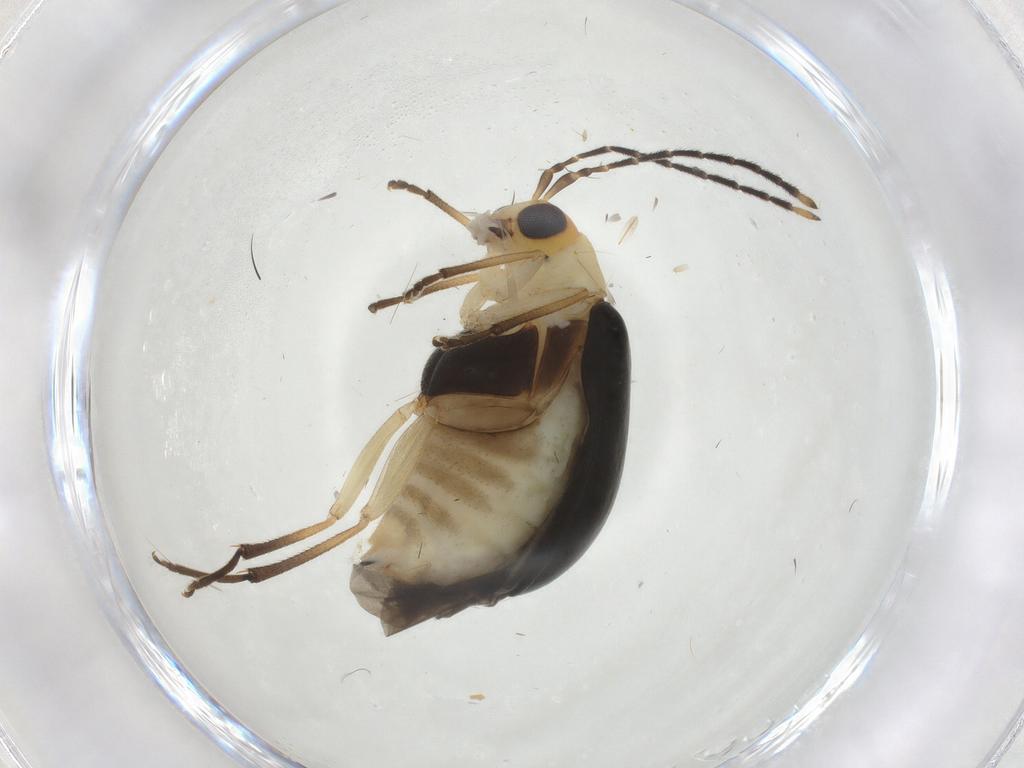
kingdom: Animalia
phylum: Arthropoda
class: Insecta
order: Coleoptera
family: Chrysomelidae
